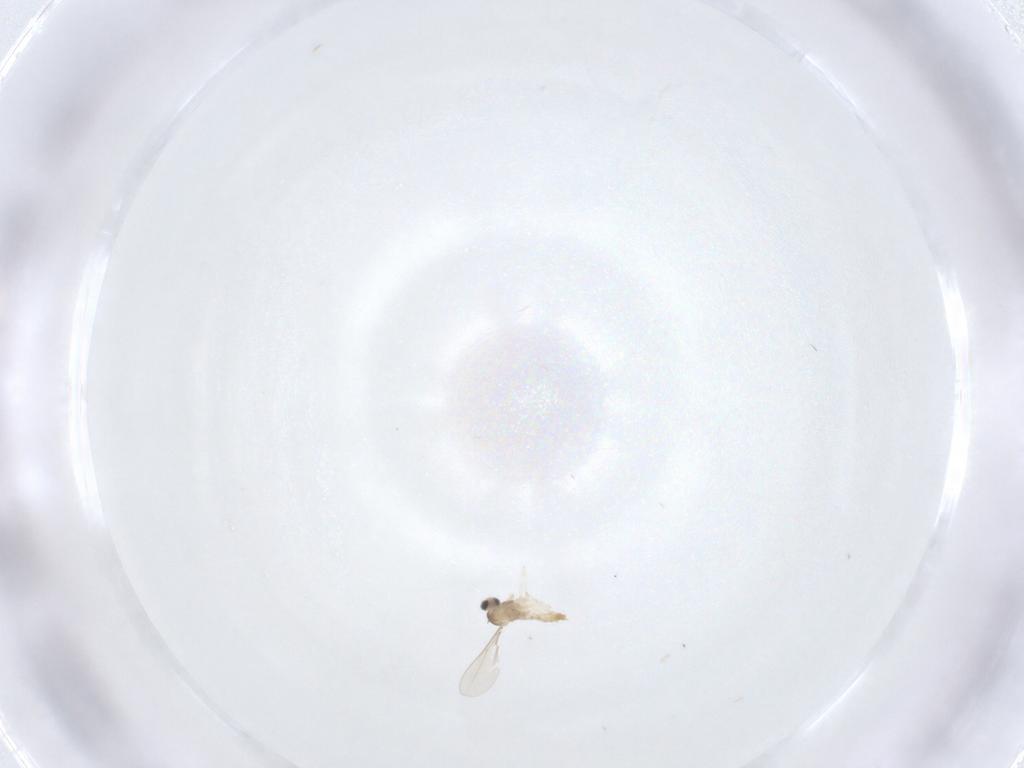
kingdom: Animalia
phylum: Arthropoda
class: Insecta
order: Diptera
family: Cecidomyiidae
